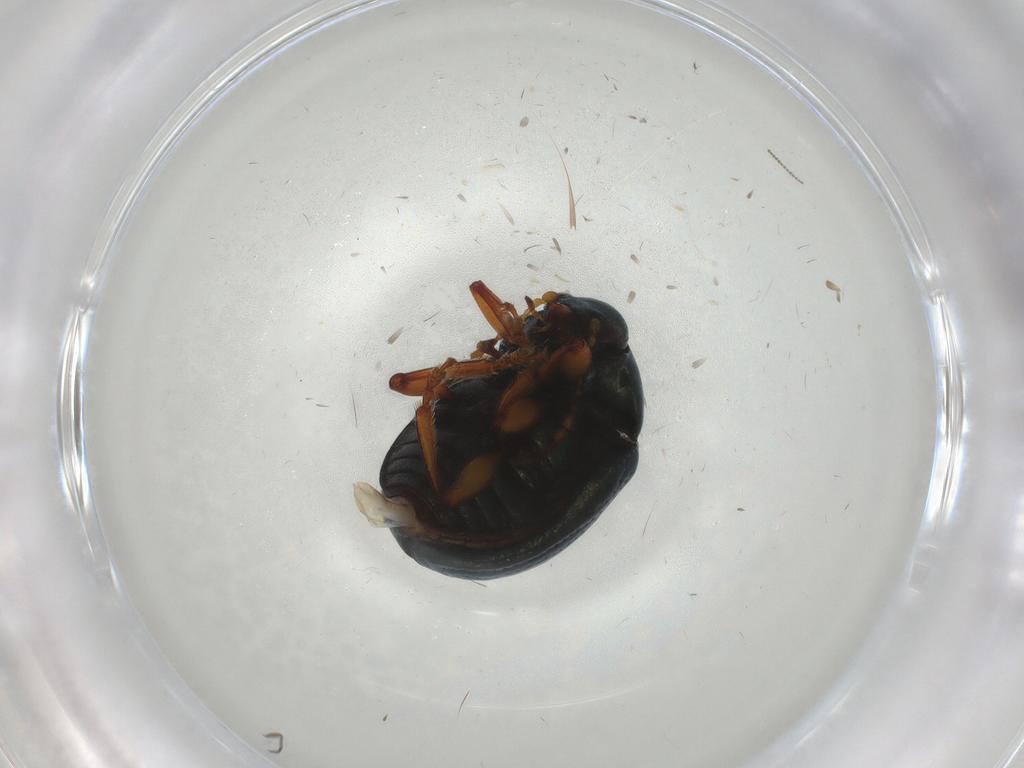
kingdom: Animalia
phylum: Arthropoda
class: Insecta
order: Coleoptera
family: Chrysomelidae
